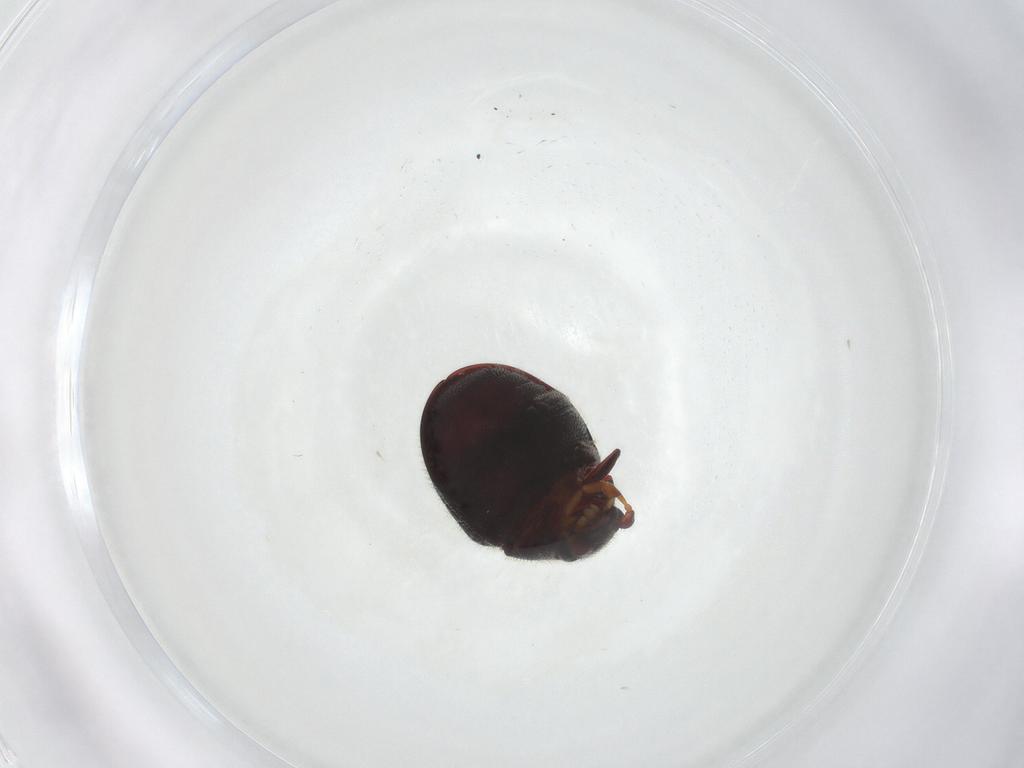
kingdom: Animalia
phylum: Arthropoda
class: Insecta
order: Coleoptera
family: Ptinidae
